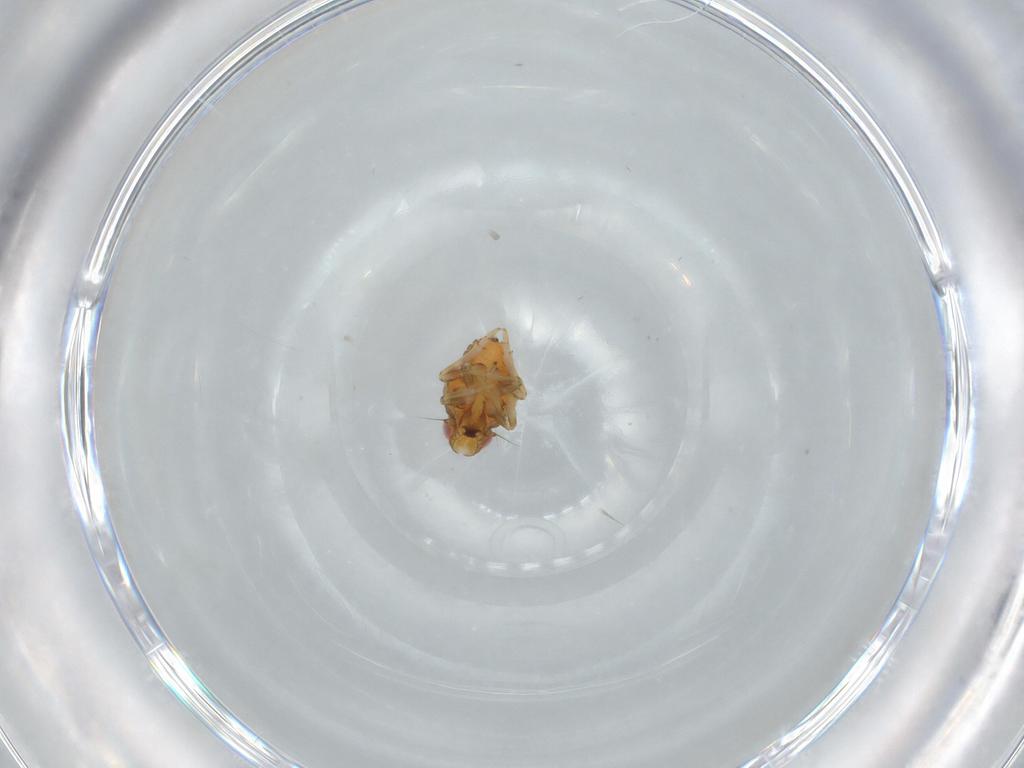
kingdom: Animalia
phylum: Arthropoda
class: Insecta
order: Hemiptera
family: Issidae
